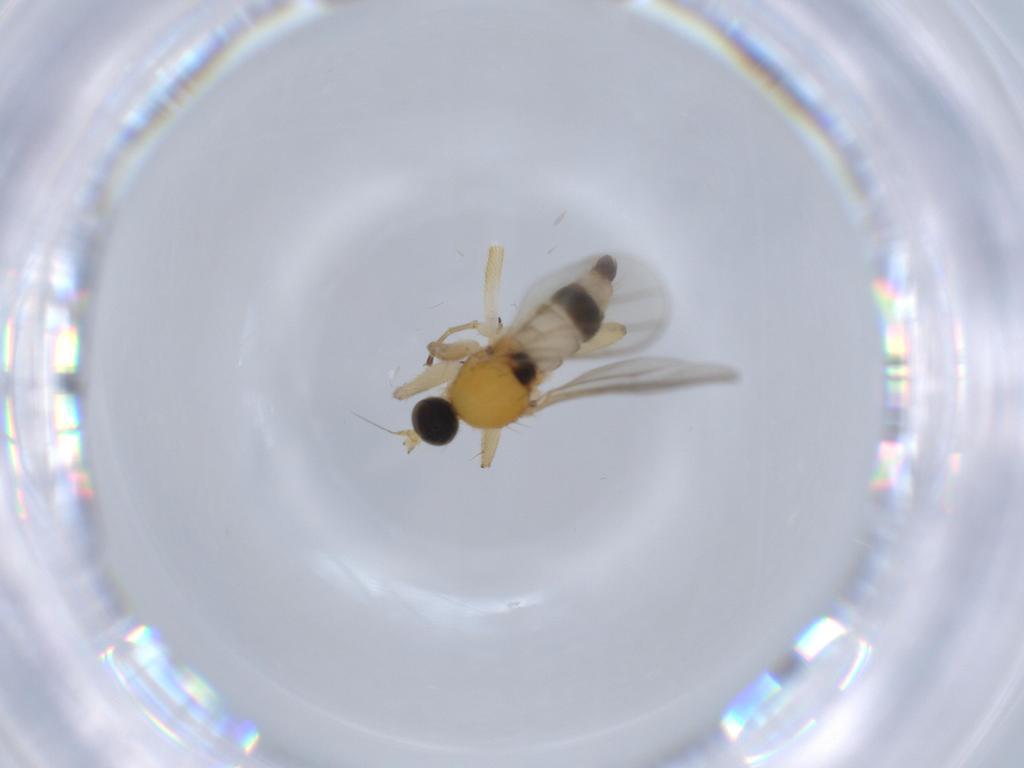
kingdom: Animalia
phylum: Arthropoda
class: Insecta
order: Diptera
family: Hybotidae
